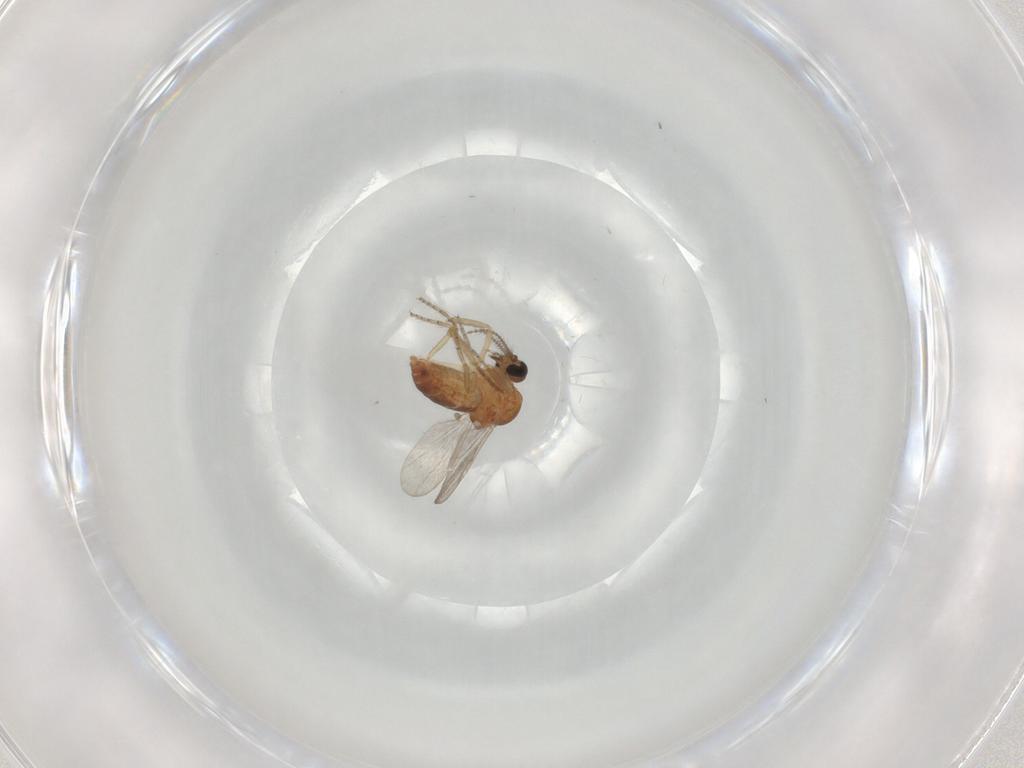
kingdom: Animalia
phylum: Arthropoda
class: Insecta
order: Diptera
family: Ceratopogonidae
